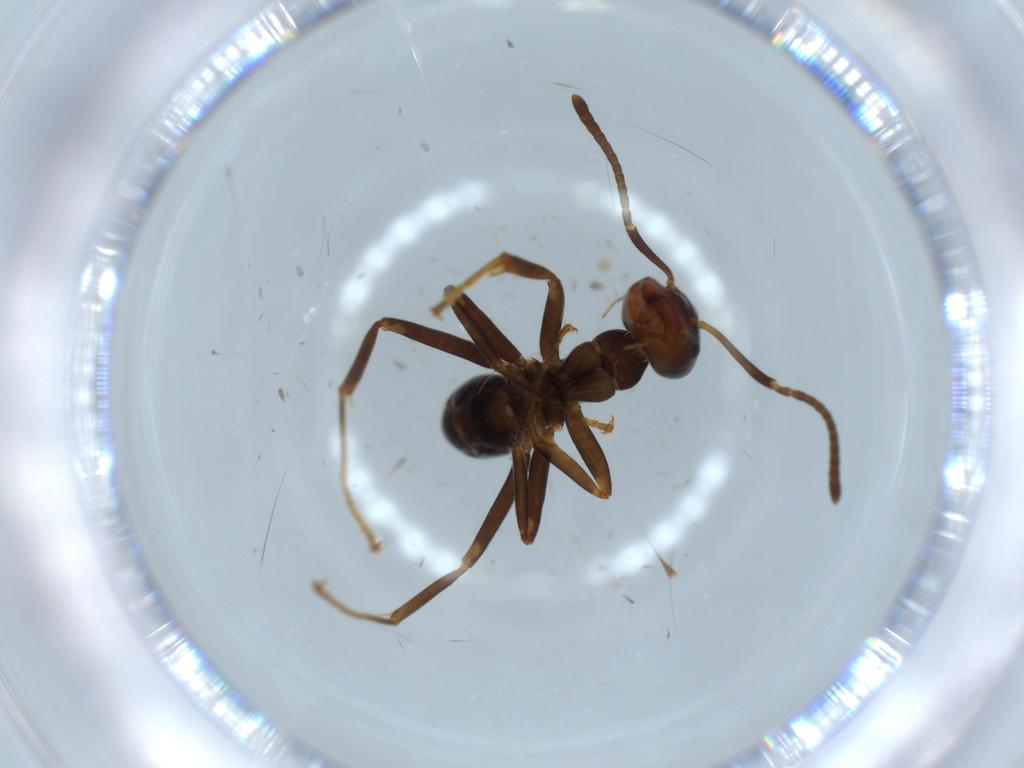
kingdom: Animalia
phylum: Arthropoda
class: Insecta
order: Hymenoptera
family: Formicidae
